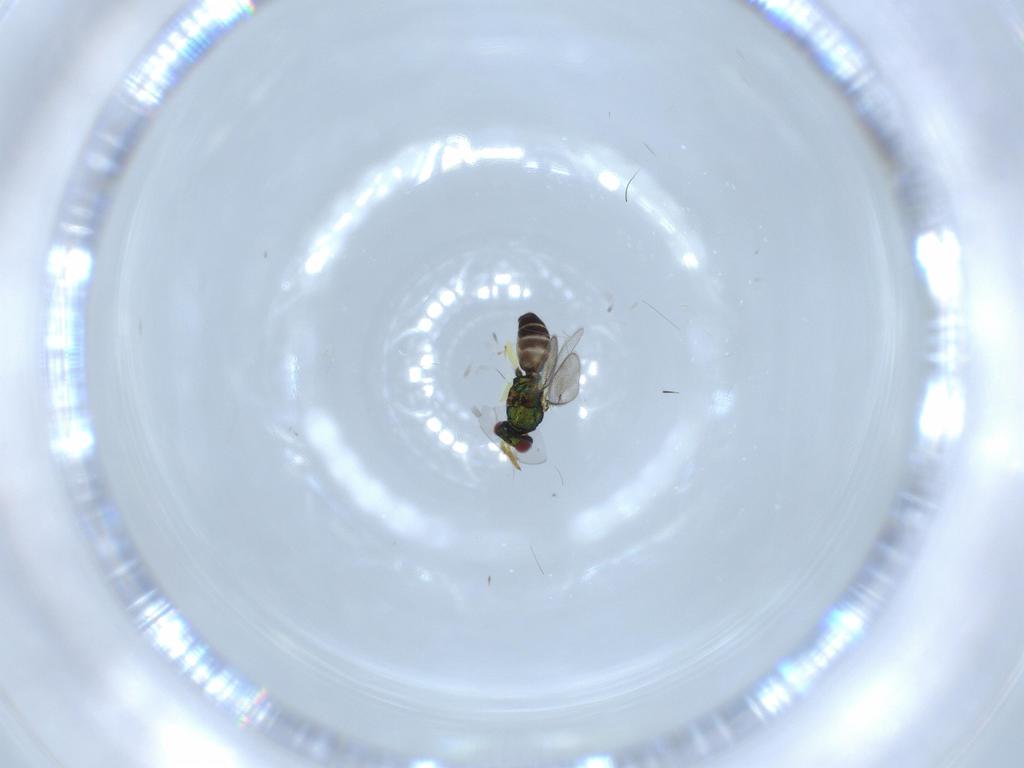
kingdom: Animalia
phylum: Arthropoda
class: Insecta
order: Hymenoptera
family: Eulophidae
